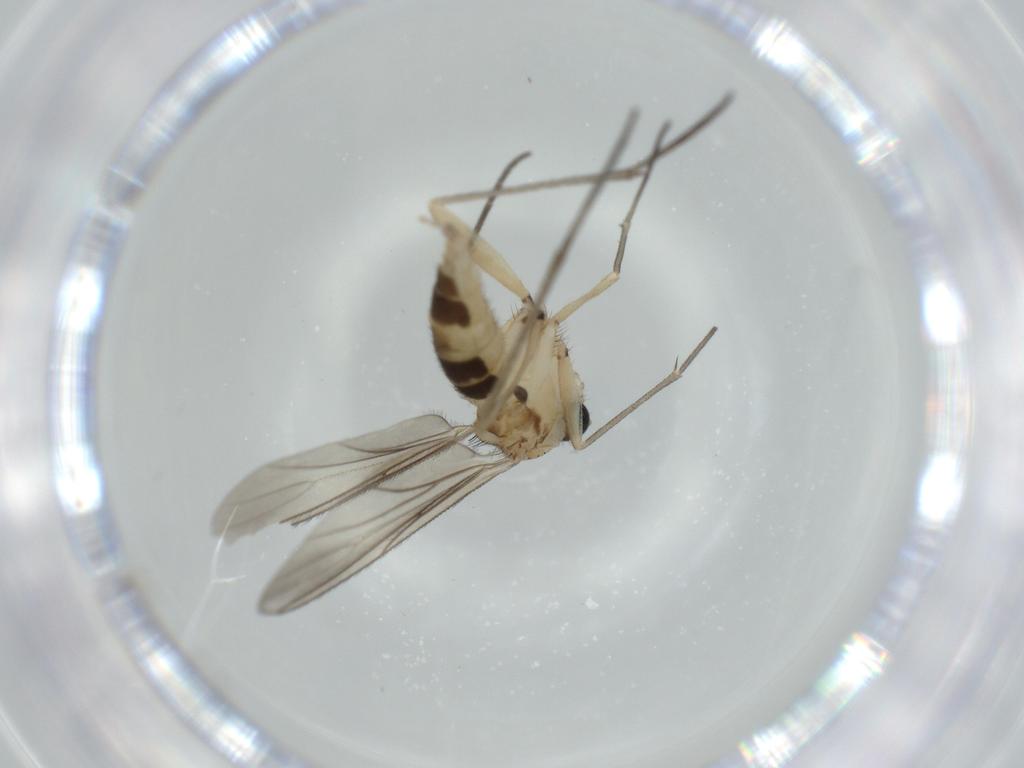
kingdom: Animalia
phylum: Arthropoda
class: Insecta
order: Diptera
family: Sciaridae
